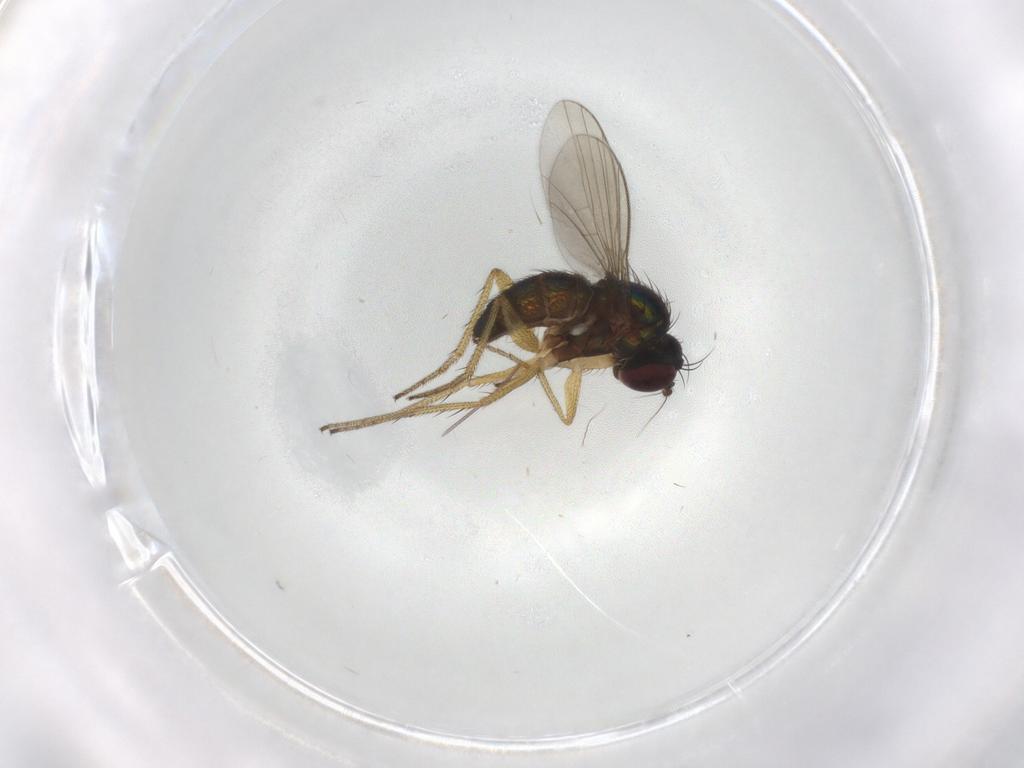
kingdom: Animalia
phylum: Arthropoda
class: Insecta
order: Diptera
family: Dolichopodidae
